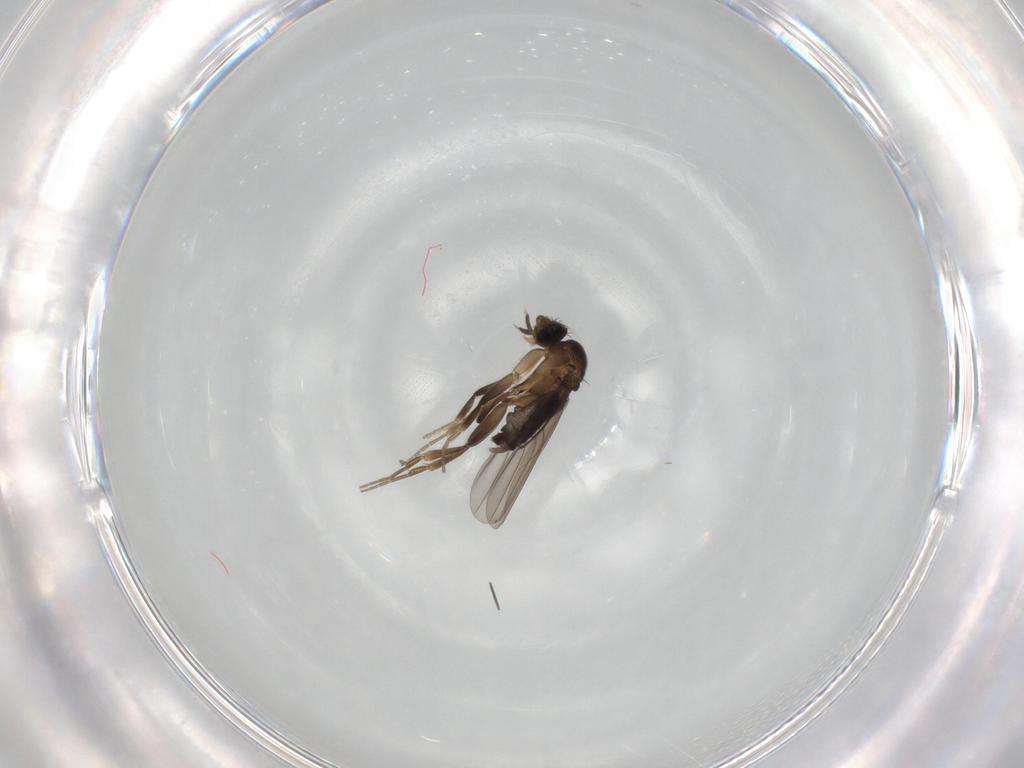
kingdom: Animalia
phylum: Arthropoda
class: Insecta
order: Diptera
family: Phoridae
